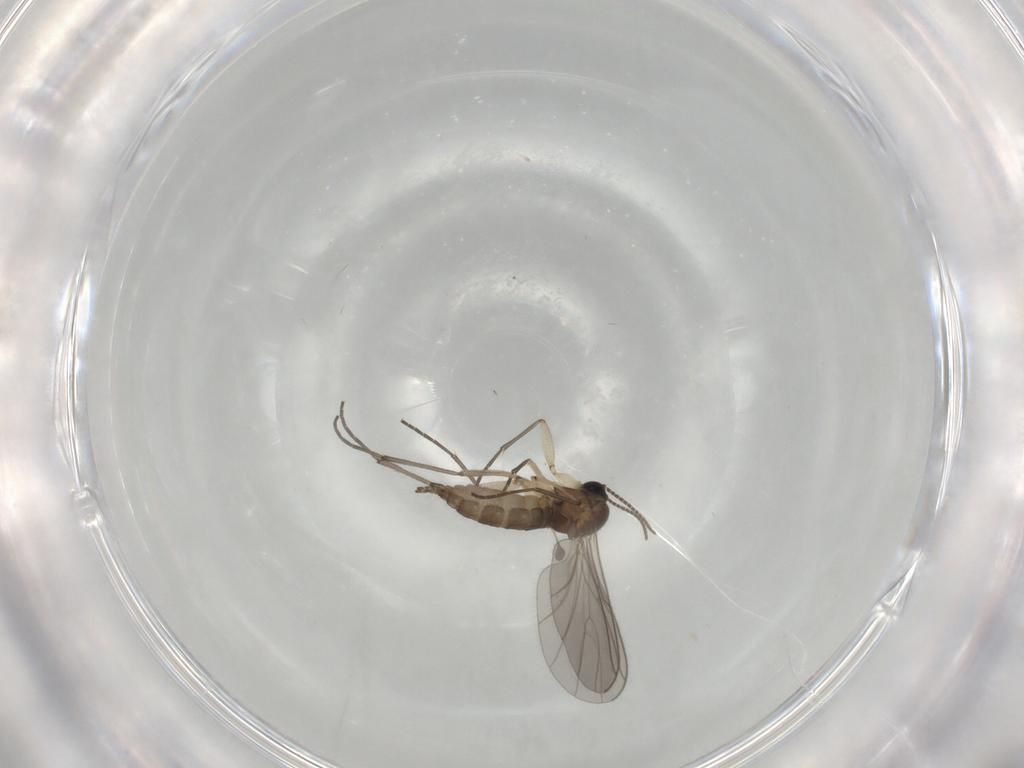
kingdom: Animalia
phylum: Arthropoda
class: Insecta
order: Diptera
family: Sciaridae
